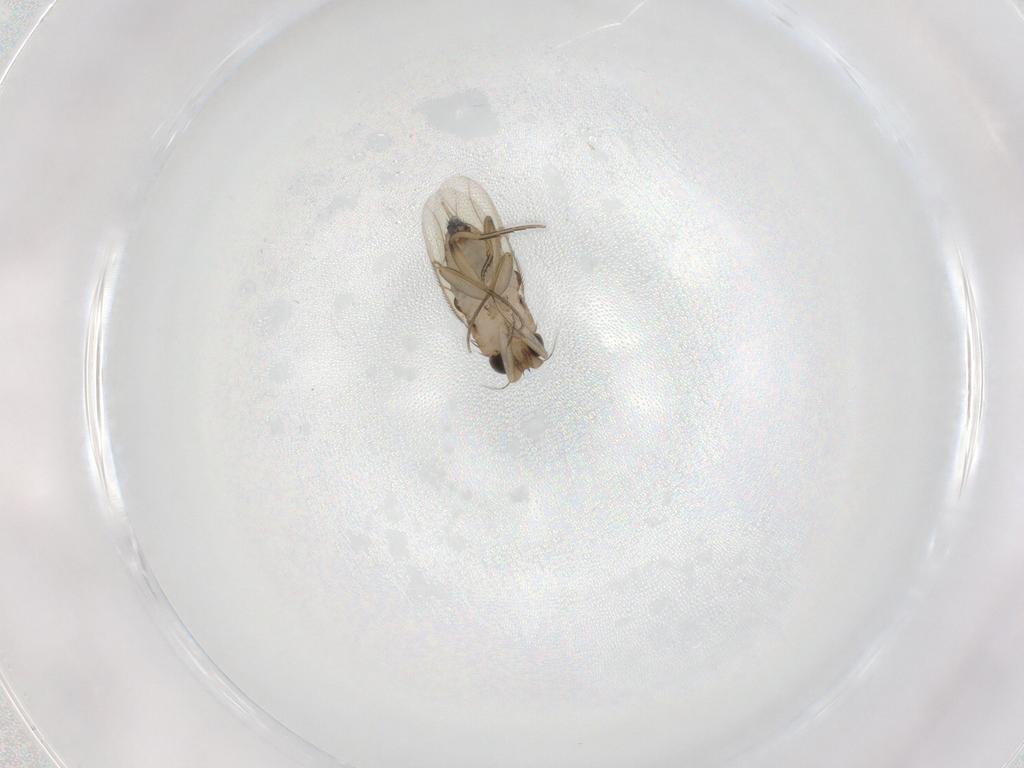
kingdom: Animalia
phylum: Arthropoda
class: Insecta
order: Diptera
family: Phoridae
